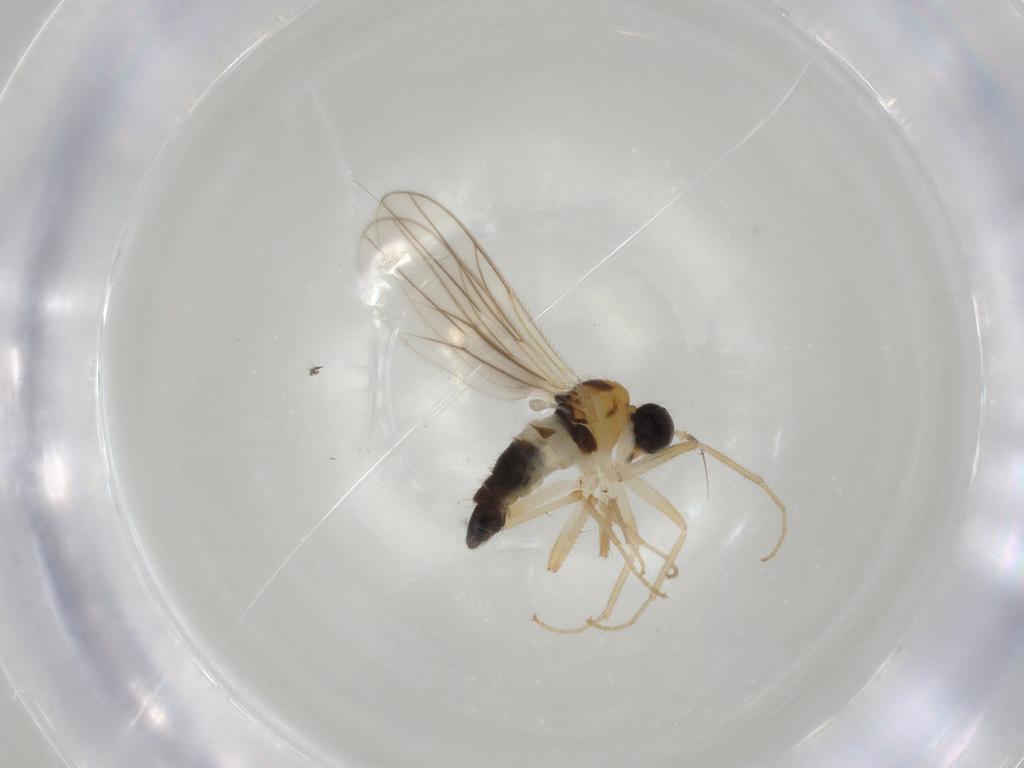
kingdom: Animalia
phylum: Arthropoda
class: Insecta
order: Diptera
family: Hybotidae
